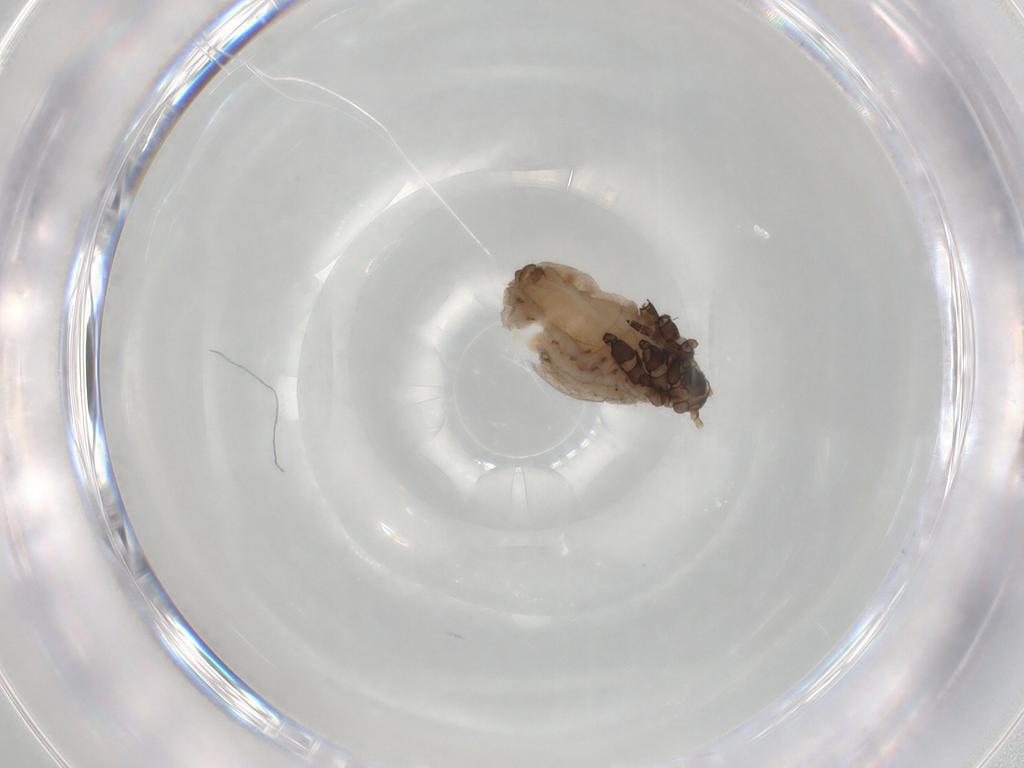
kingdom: Animalia
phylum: Arthropoda
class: Insecta
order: Hemiptera
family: Aphididae
